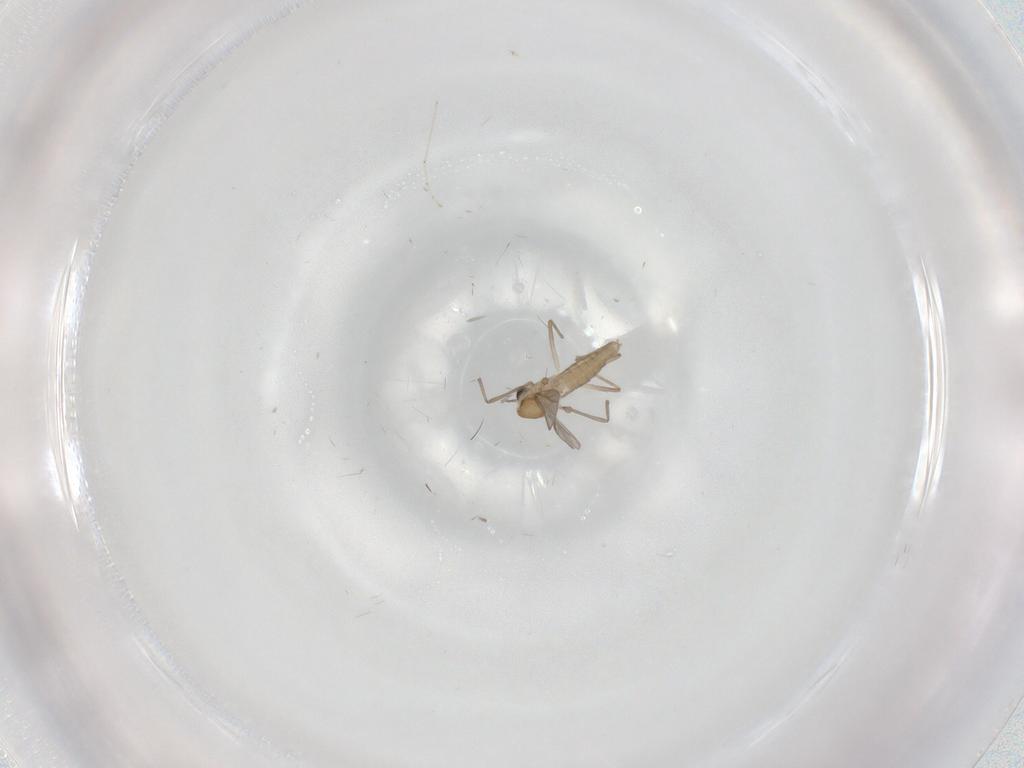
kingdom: Animalia
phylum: Arthropoda
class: Insecta
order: Diptera
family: Chironomidae
